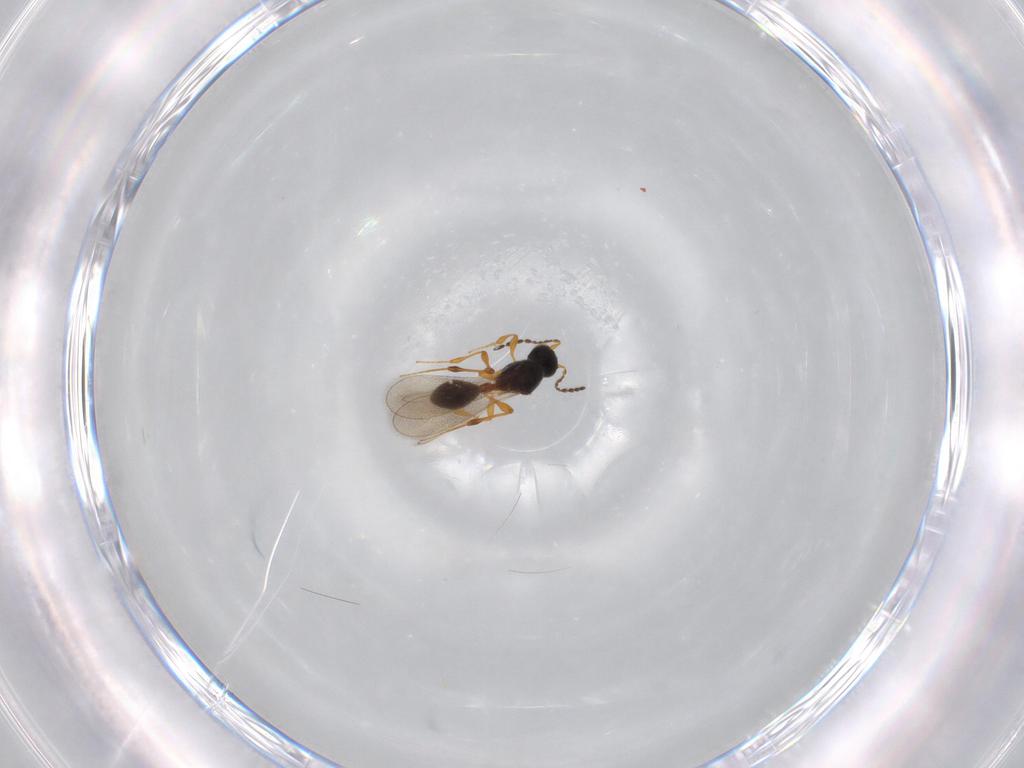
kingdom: Animalia
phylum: Arthropoda
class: Insecta
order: Hymenoptera
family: Platygastridae
